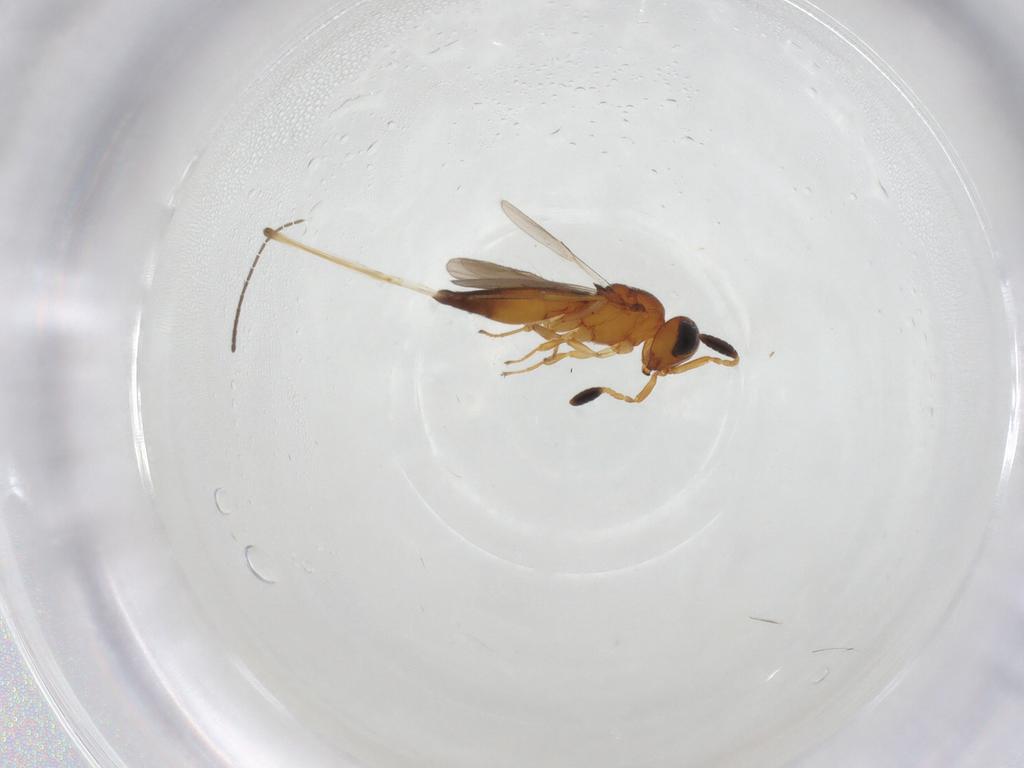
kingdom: Animalia
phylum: Arthropoda
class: Insecta
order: Hymenoptera
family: Scelionidae
